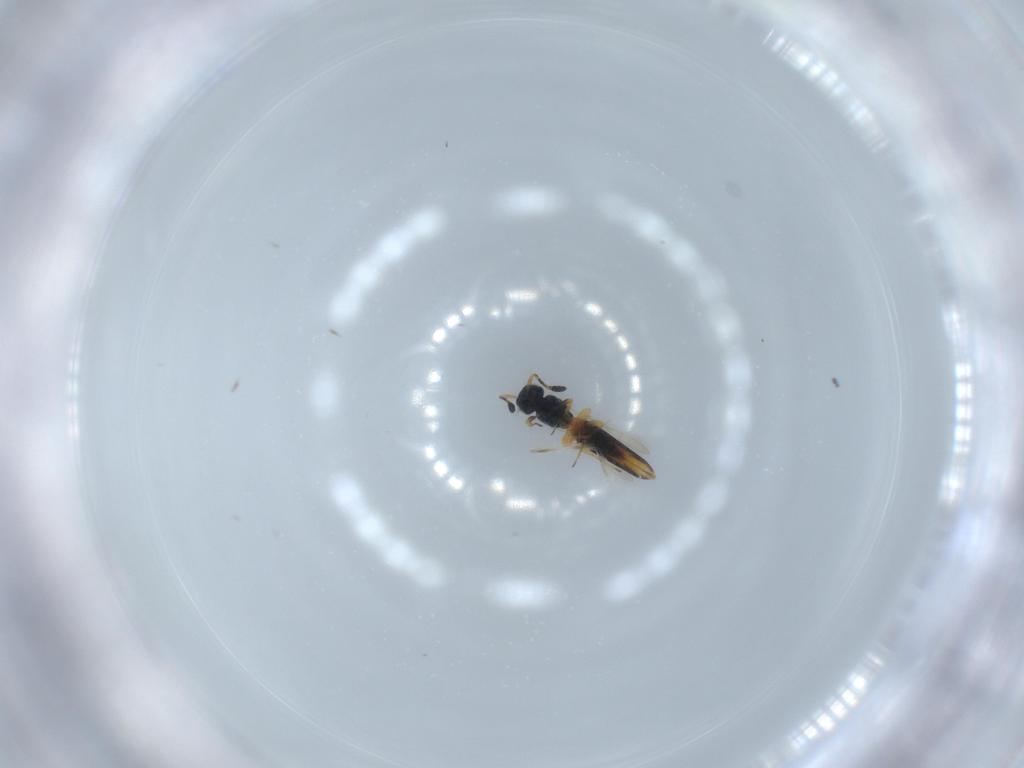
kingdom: Animalia
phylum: Arthropoda
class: Insecta
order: Hymenoptera
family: Scelionidae
